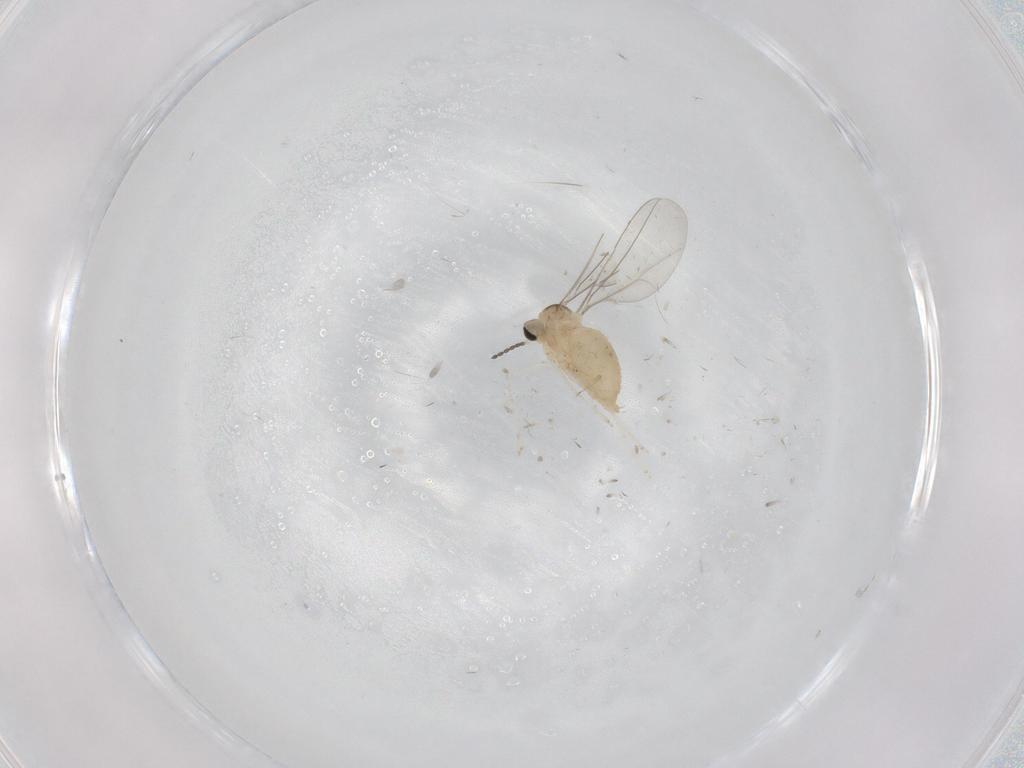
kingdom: Animalia
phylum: Arthropoda
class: Insecta
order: Diptera
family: Cecidomyiidae
